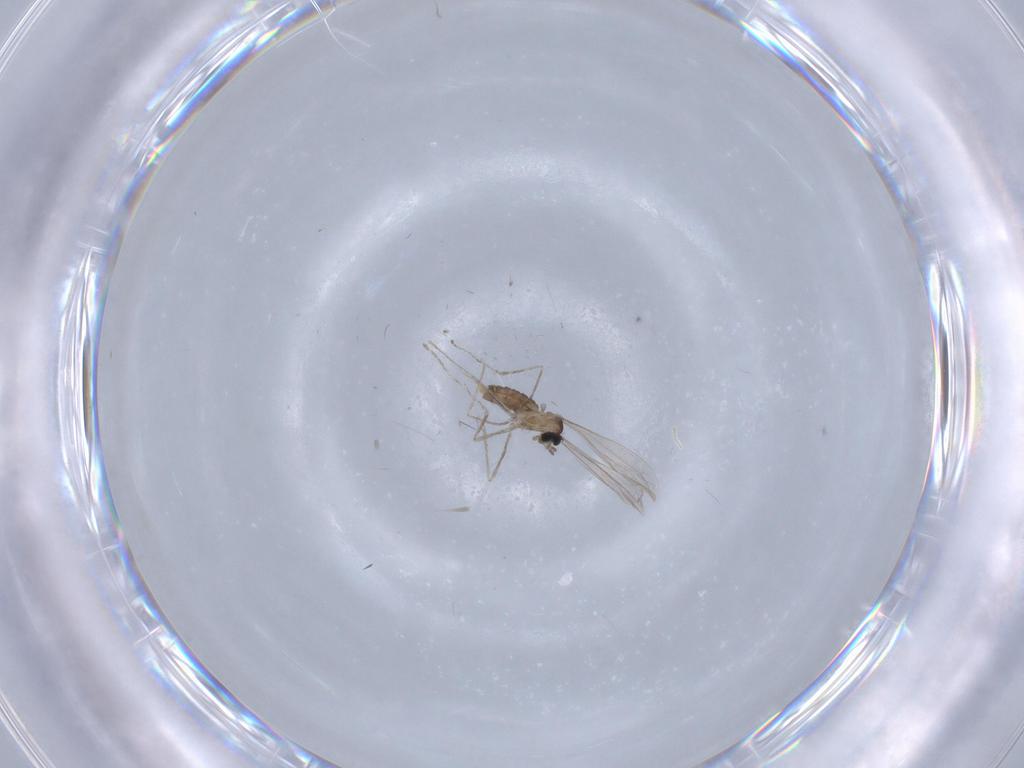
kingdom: Animalia
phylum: Arthropoda
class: Insecta
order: Diptera
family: Cecidomyiidae
